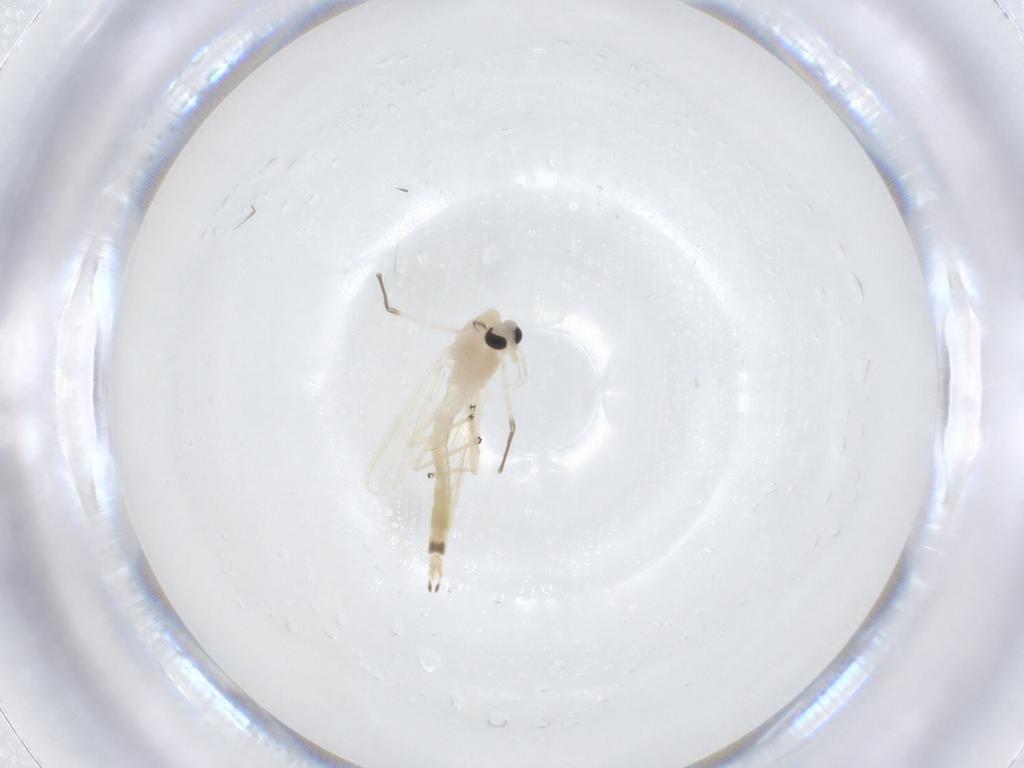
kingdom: Animalia
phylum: Arthropoda
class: Insecta
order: Diptera
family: Chironomidae
